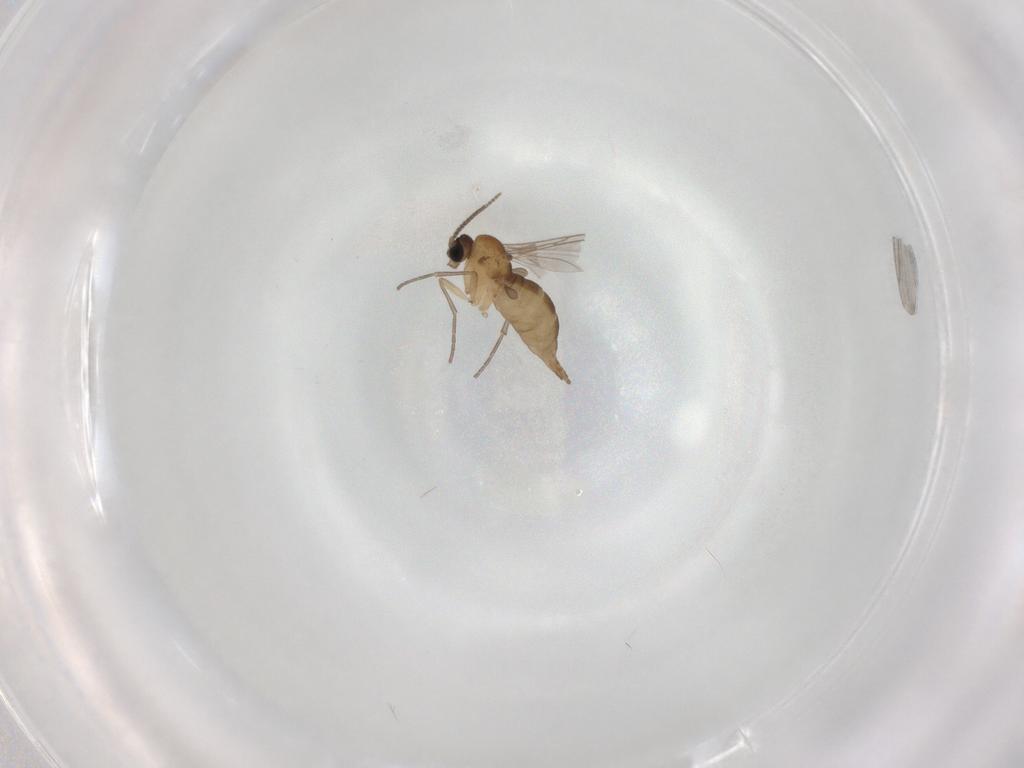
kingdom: Animalia
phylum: Arthropoda
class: Insecta
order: Diptera
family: Sciaridae
